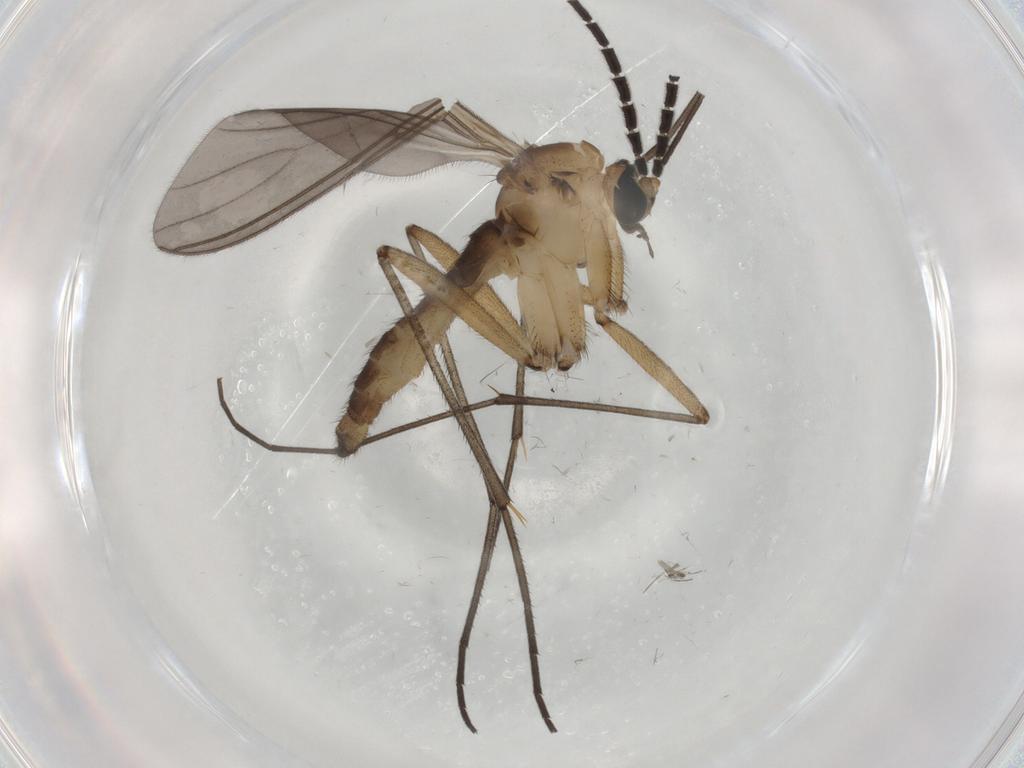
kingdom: Animalia
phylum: Arthropoda
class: Insecta
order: Diptera
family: Sciaridae
